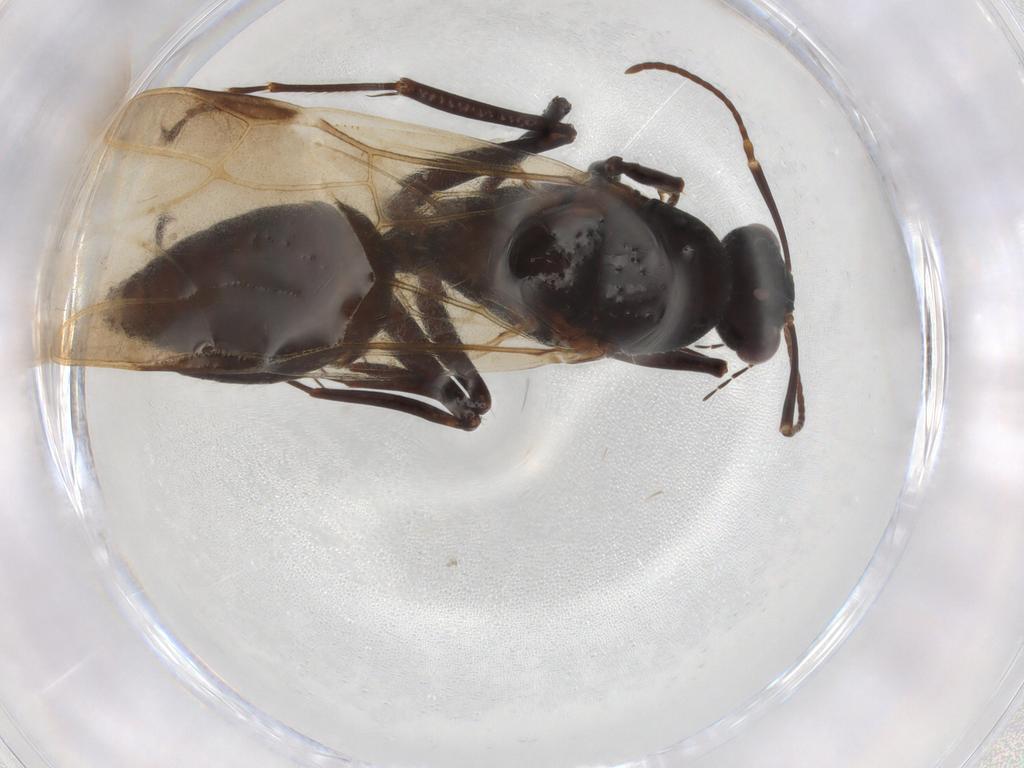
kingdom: Animalia
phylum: Arthropoda
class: Insecta
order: Hymenoptera
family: Formicidae
